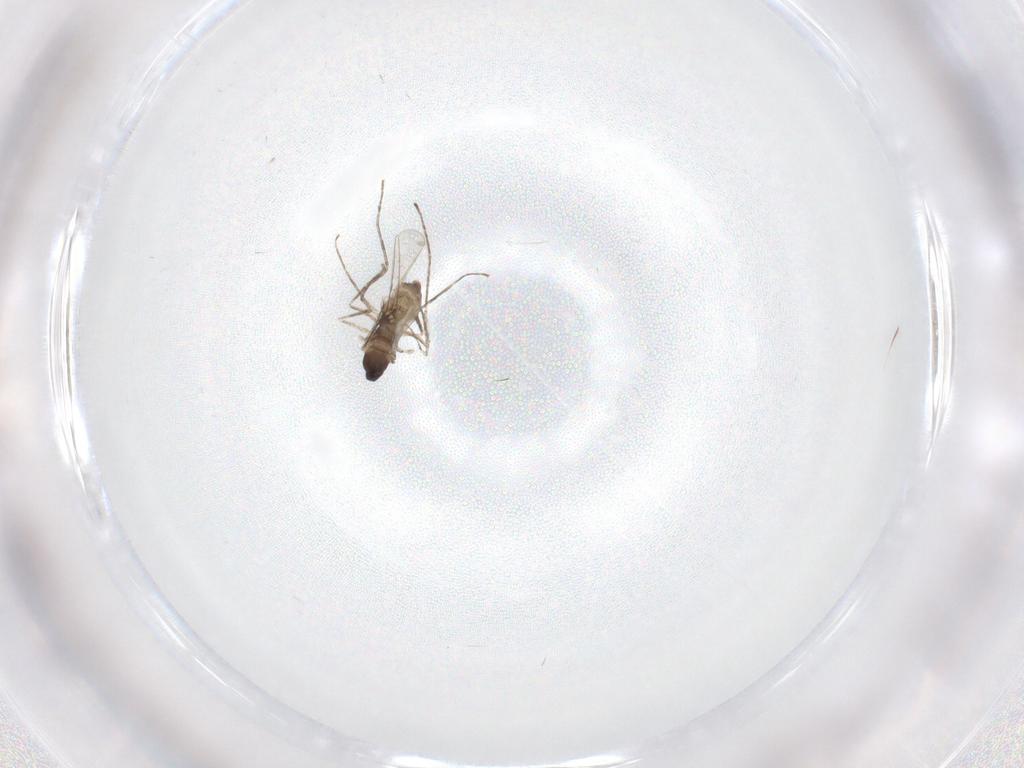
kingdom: Animalia
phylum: Arthropoda
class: Insecta
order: Diptera
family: Cecidomyiidae
